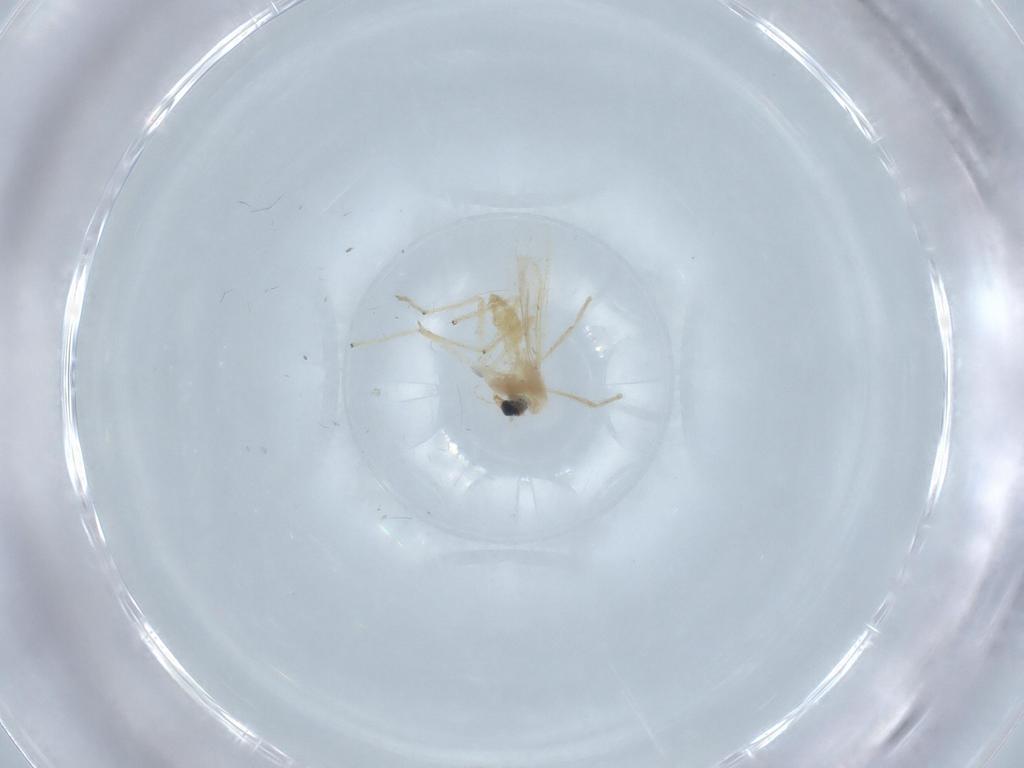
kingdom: Animalia
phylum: Arthropoda
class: Insecta
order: Diptera
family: Chironomidae
